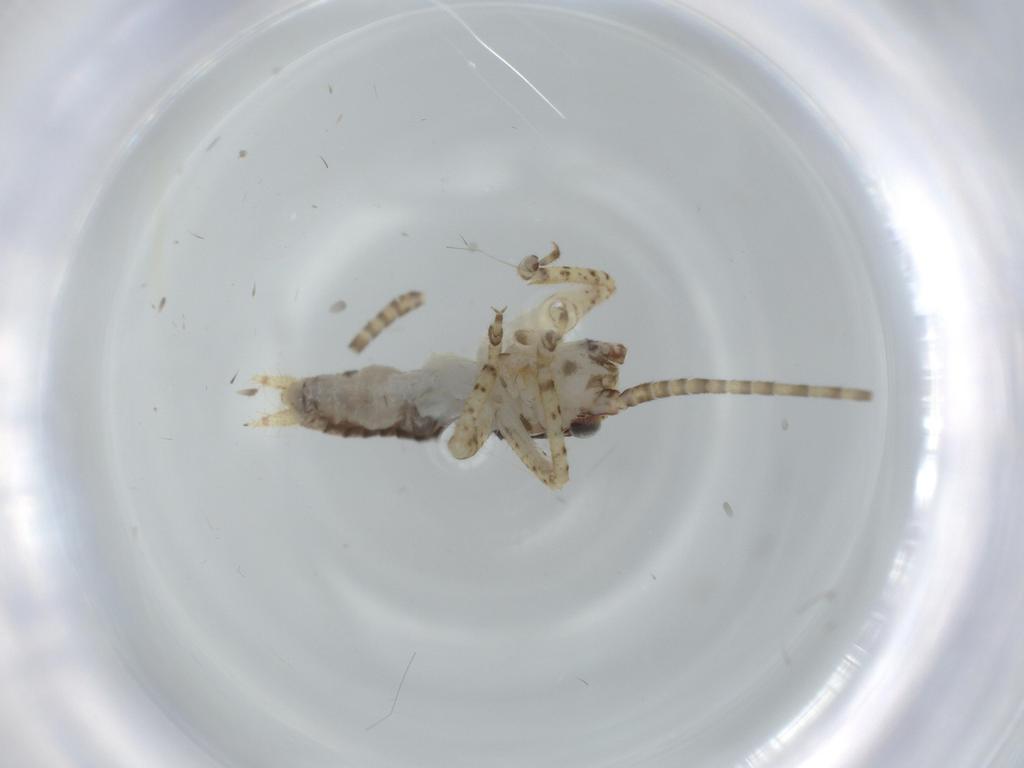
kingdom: Animalia
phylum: Arthropoda
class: Insecta
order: Orthoptera
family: Gryllidae
